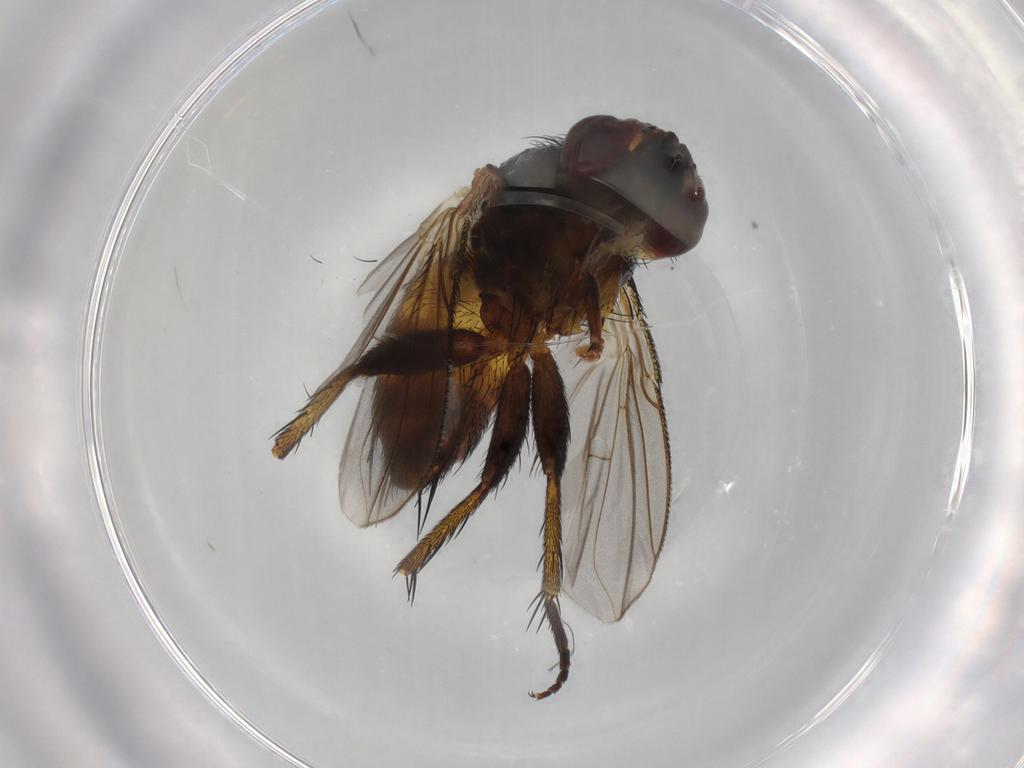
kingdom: Animalia
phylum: Arthropoda
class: Insecta
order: Diptera
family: Tachinidae
